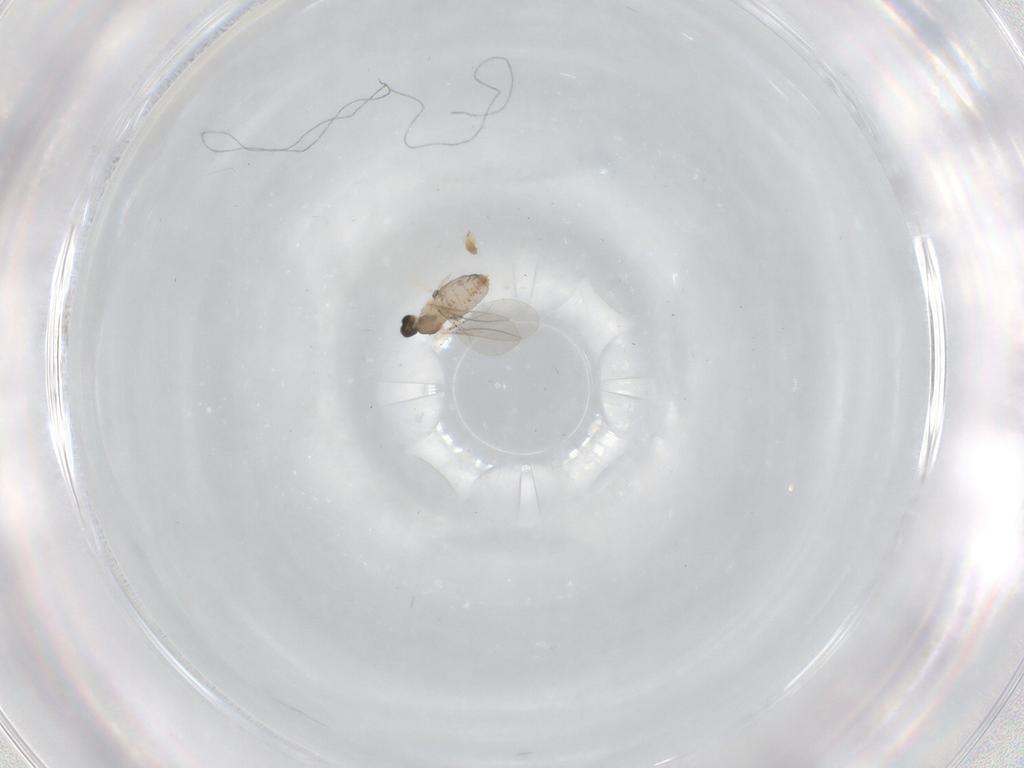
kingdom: Animalia
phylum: Arthropoda
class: Insecta
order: Diptera
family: Cecidomyiidae
